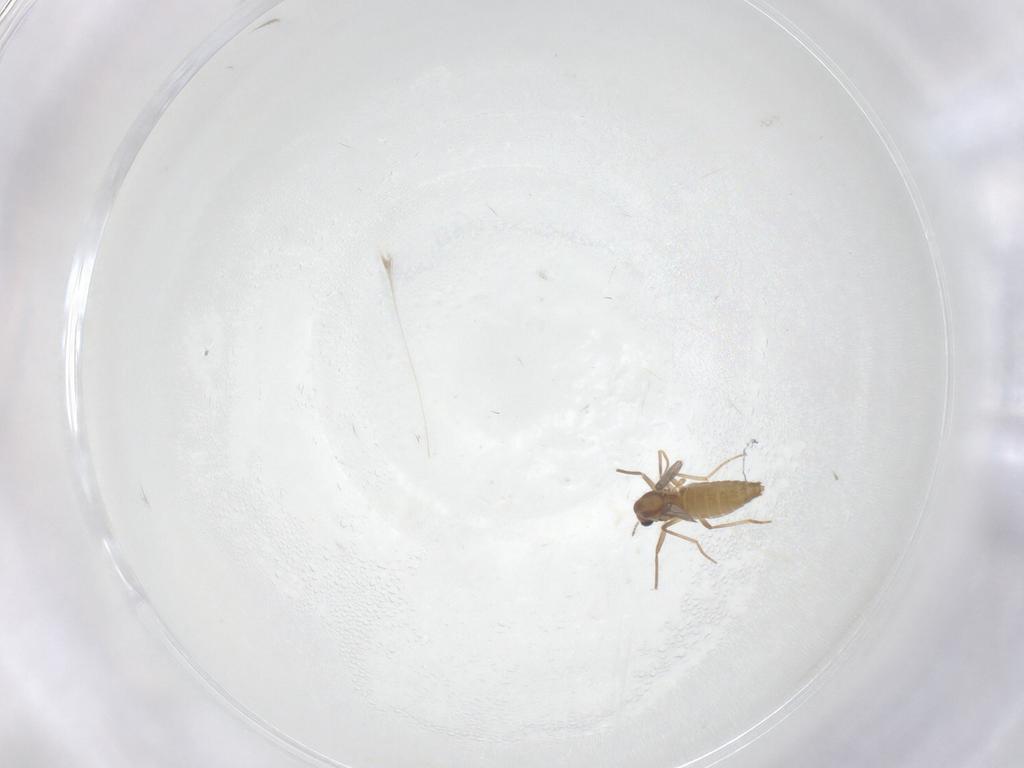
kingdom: Animalia
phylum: Arthropoda
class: Insecta
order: Diptera
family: Chironomidae
